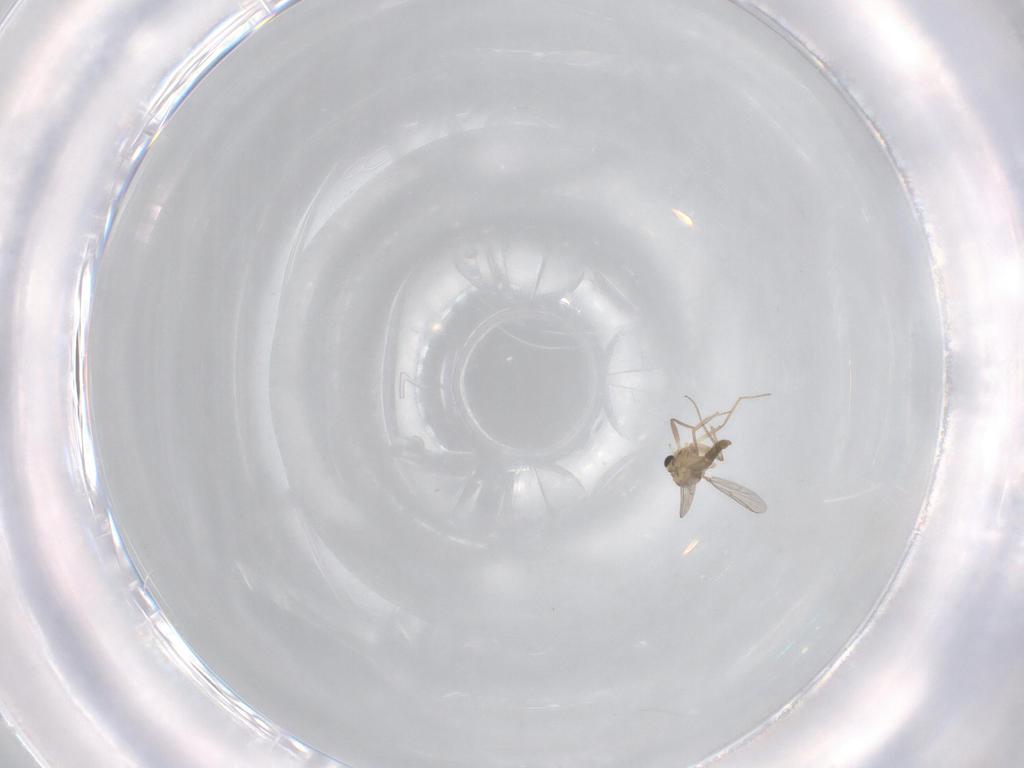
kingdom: Animalia
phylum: Arthropoda
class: Insecta
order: Diptera
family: Chironomidae
